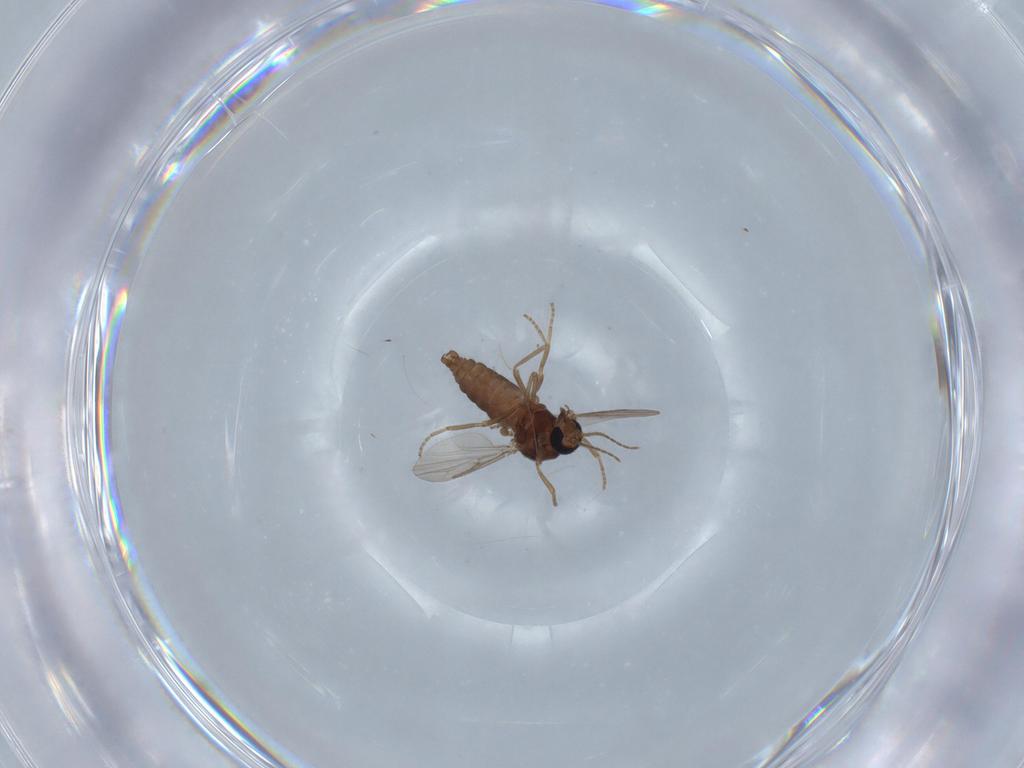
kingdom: Animalia
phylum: Arthropoda
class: Insecta
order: Diptera
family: Ceratopogonidae
